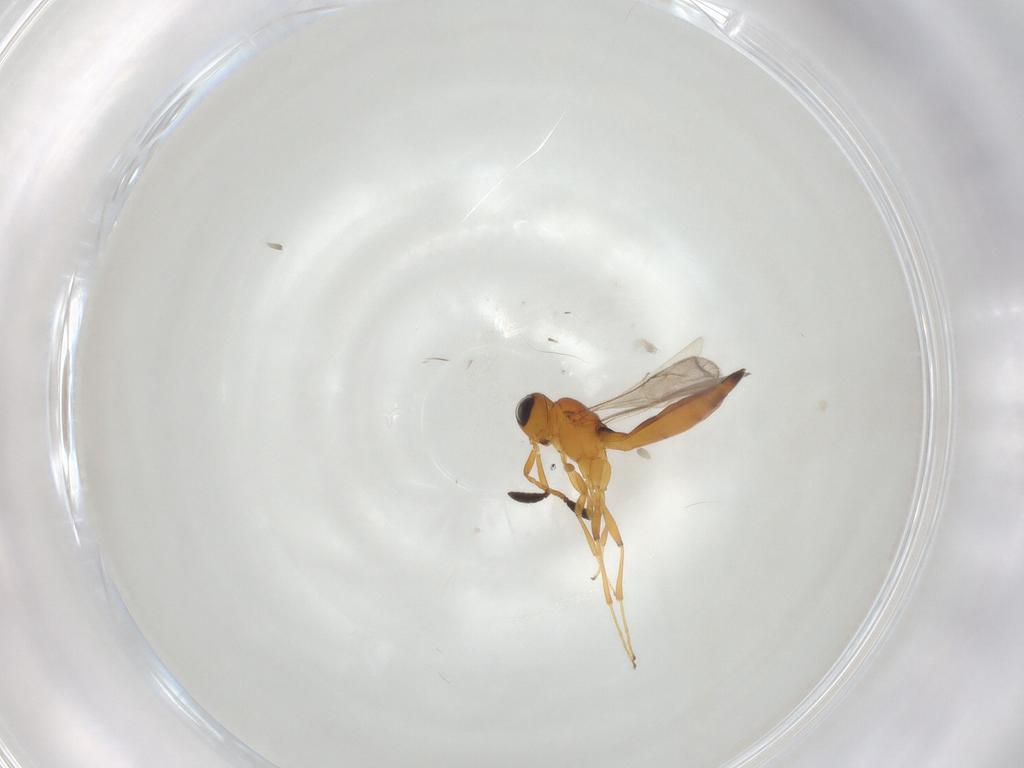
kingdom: Animalia
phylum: Arthropoda
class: Insecta
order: Hymenoptera
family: Scelionidae
